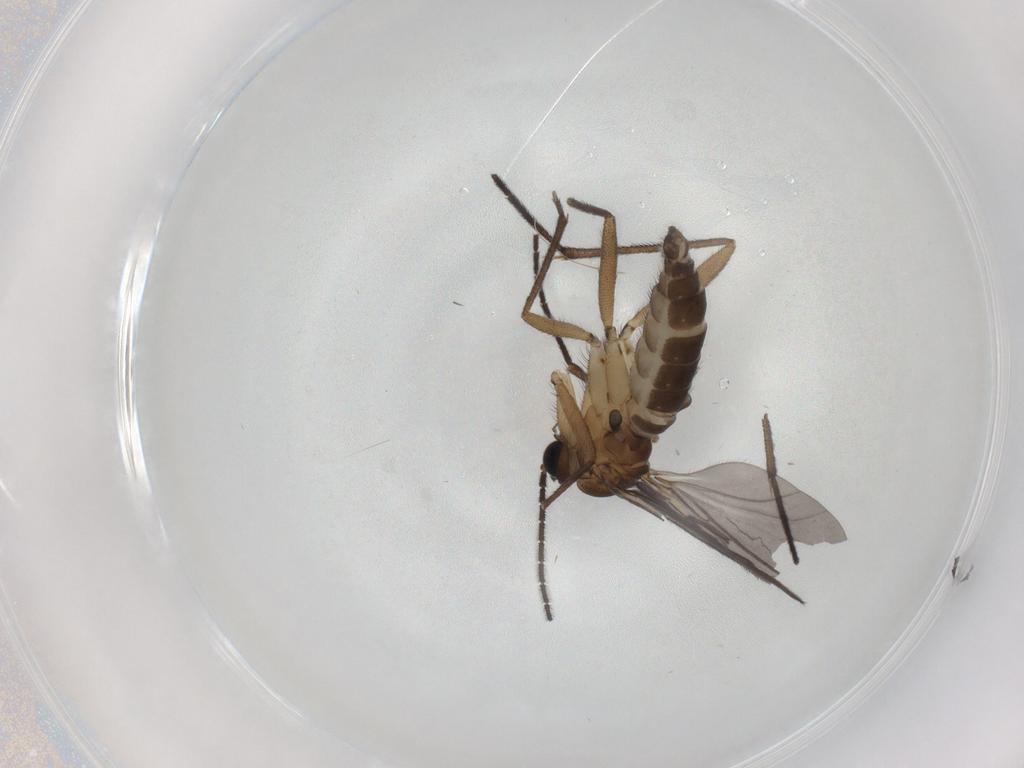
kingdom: Animalia
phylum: Arthropoda
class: Insecta
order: Diptera
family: Sciaridae
